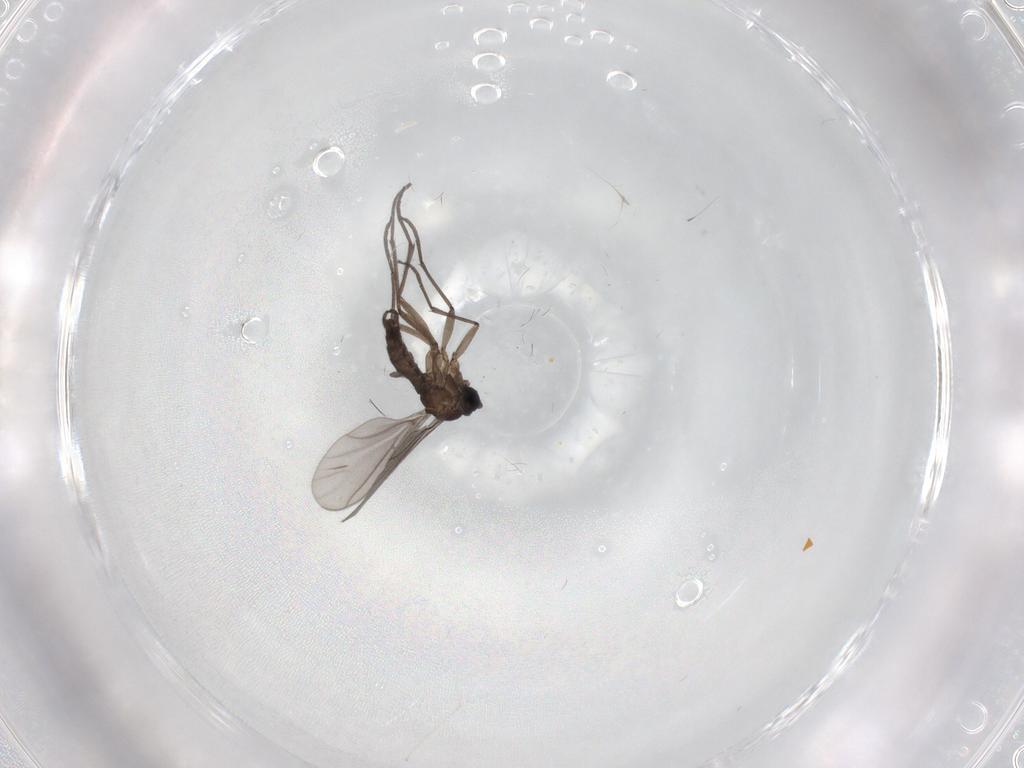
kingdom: Animalia
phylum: Arthropoda
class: Insecta
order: Diptera
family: Sciaridae
